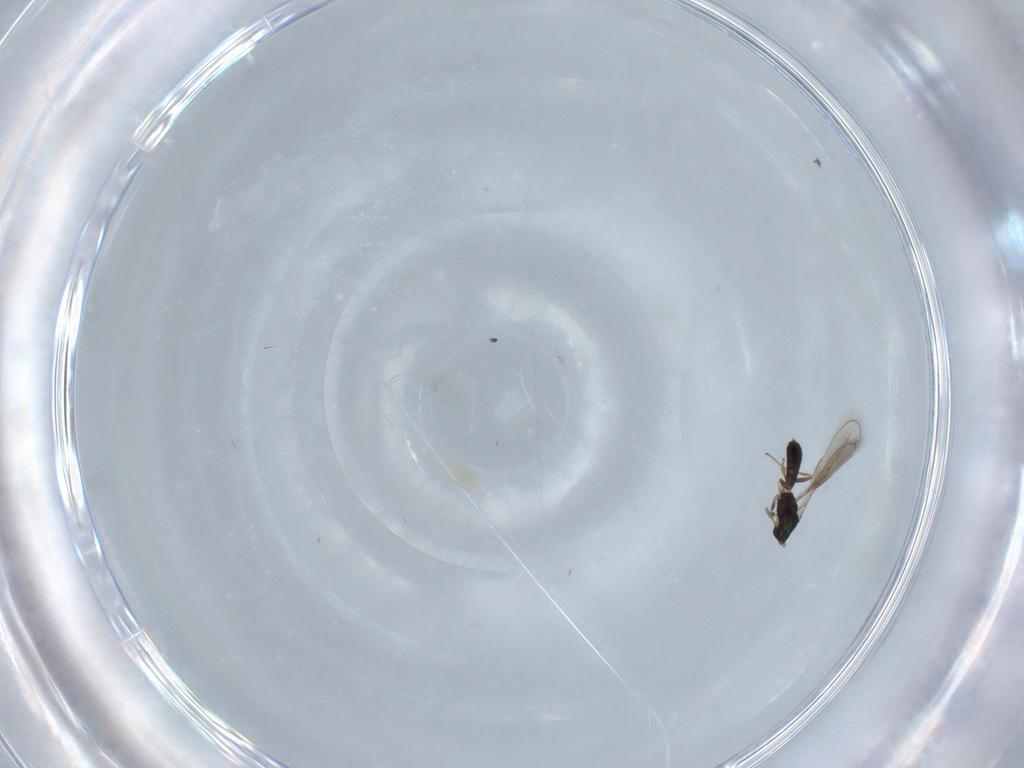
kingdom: Animalia
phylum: Arthropoda
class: Insecta
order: Hymenoptera
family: Eulophidae
